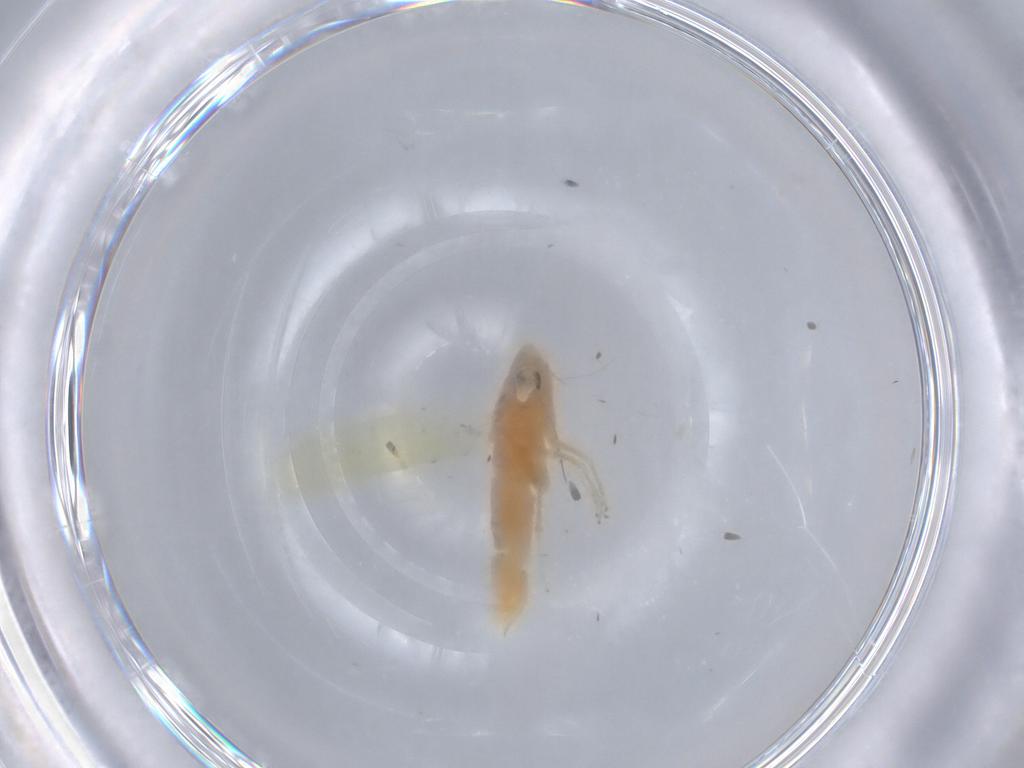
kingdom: Animalia
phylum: Arthropoda
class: Insecta
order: Hemiptera
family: Cicadellidae
